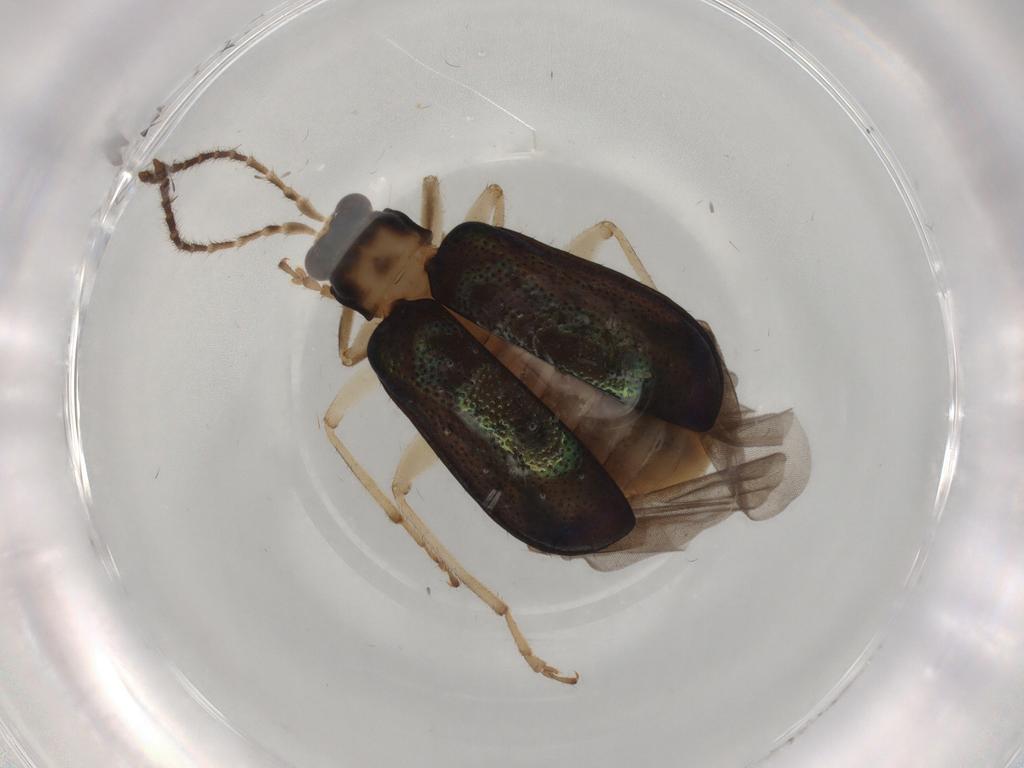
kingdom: Animalia
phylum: Arthropoda
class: Insecta
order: Coleoptera
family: Chrysomelidae
